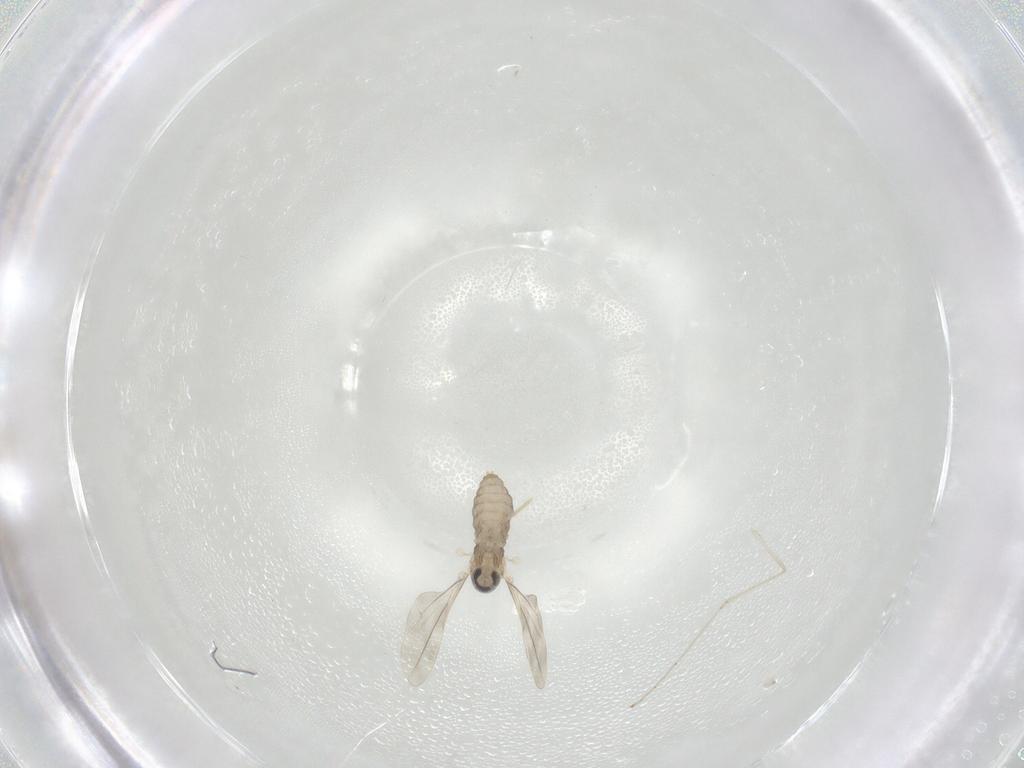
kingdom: Animalia
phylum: Arthropoda
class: Insecta
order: Diptera
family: Cecidomyiidae
